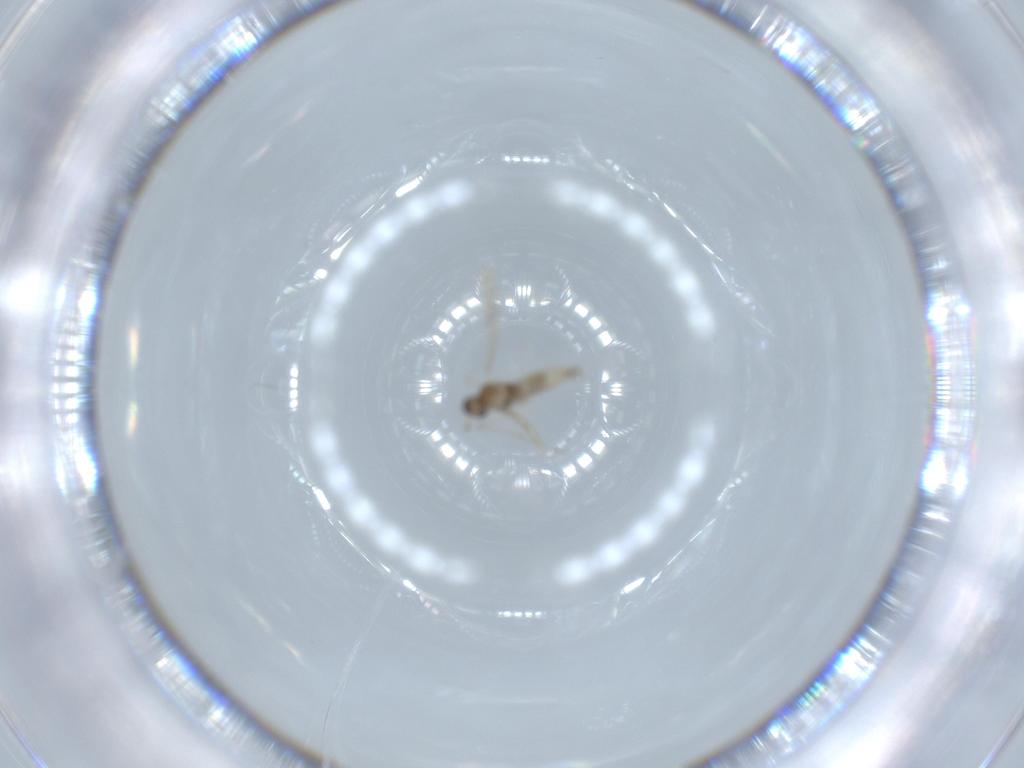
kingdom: Animalia
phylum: Arthropoda
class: Insecta
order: Diptera
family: Cecidomyiidae
